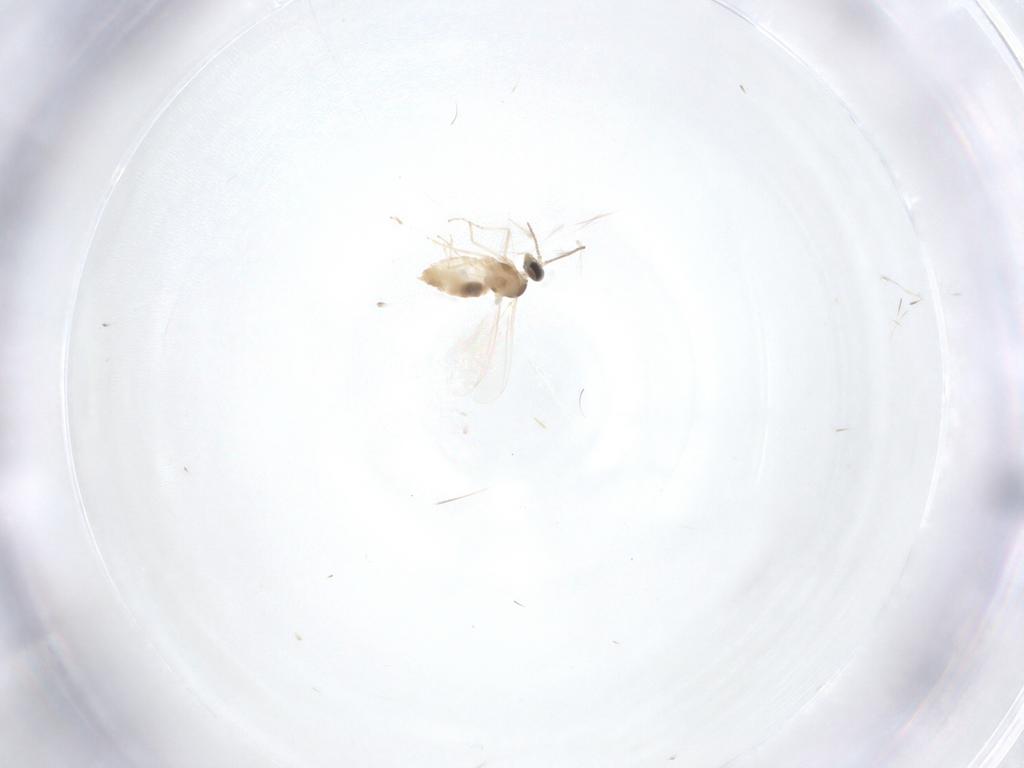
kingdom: Animalia
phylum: Arthropoda
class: Insecta
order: Diptera
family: Cecidomyiidae
